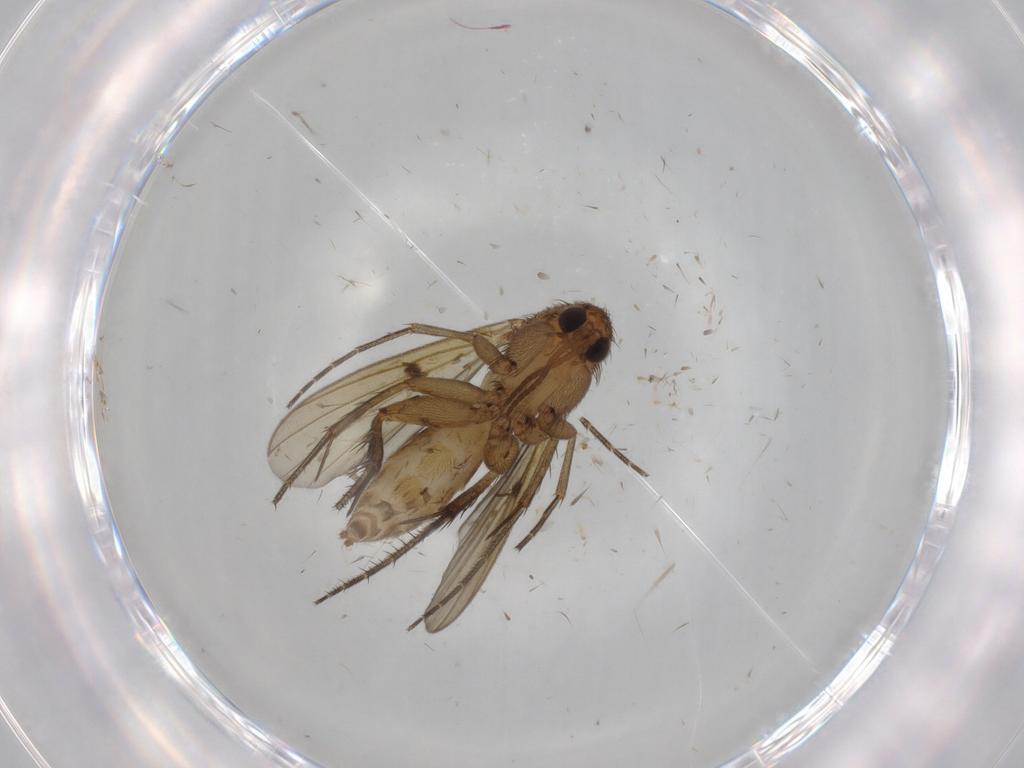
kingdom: Animalia
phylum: Arthropoda
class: Insecta
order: Diptera
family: Mycetophilidae
